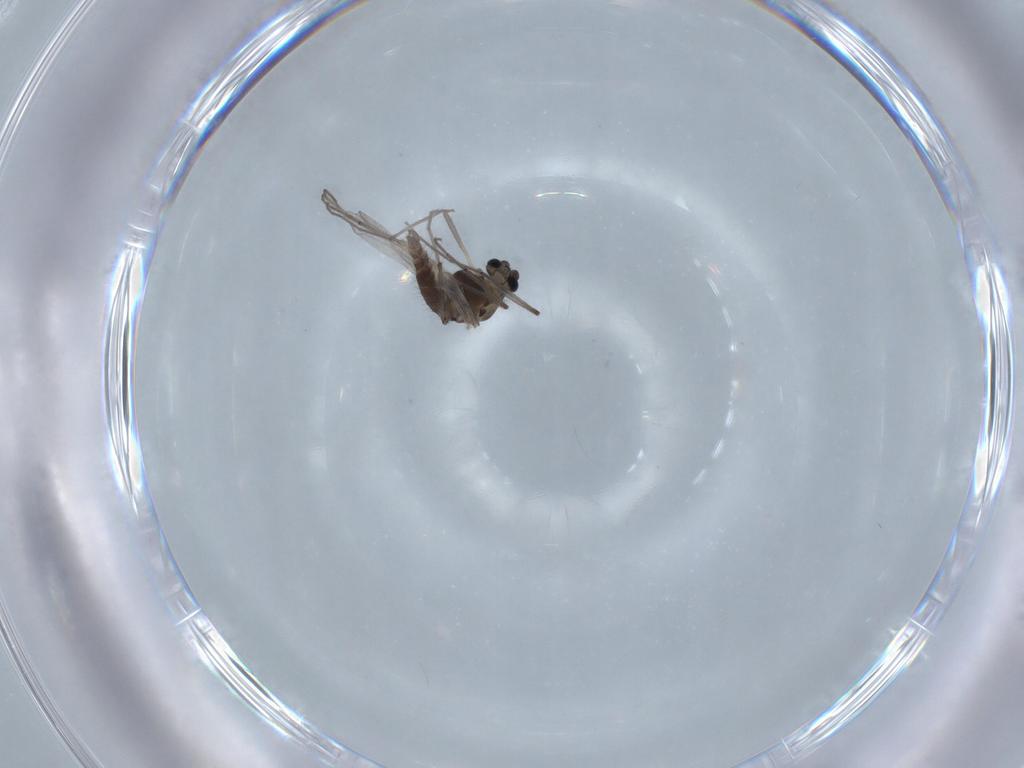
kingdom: Animalia
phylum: Arthropoda
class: Insecta
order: Diptera
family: Chironomidae
